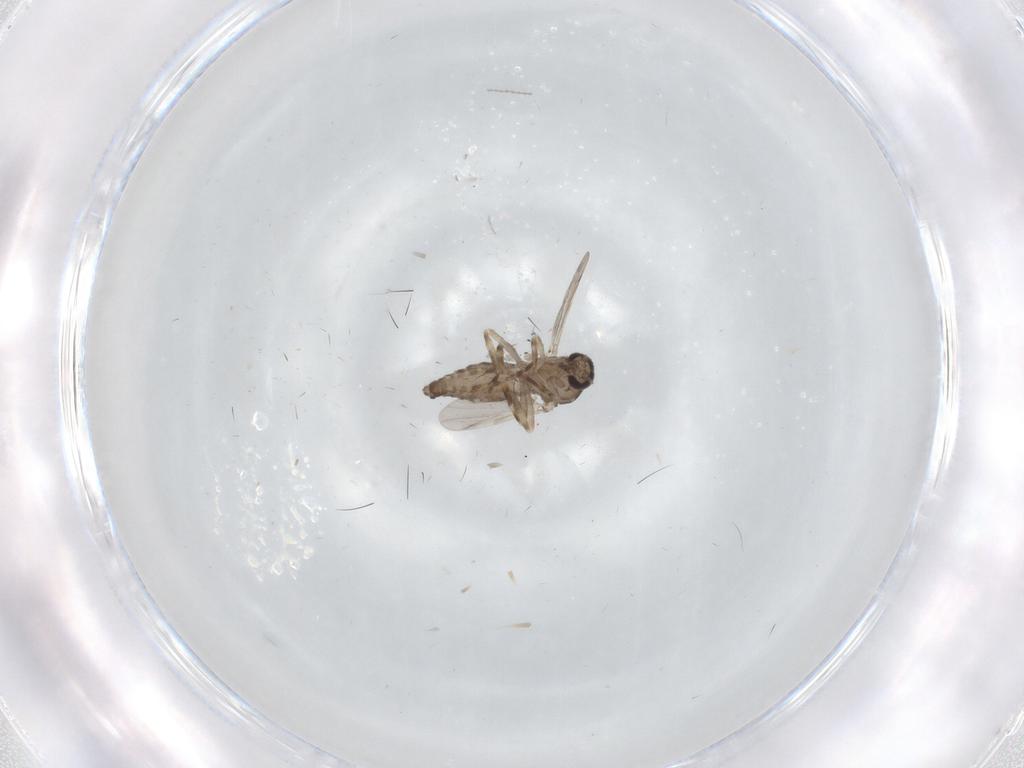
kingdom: Animalia
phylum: Arthropoda
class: Insecta
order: Diptera
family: Ceratopogonidae
